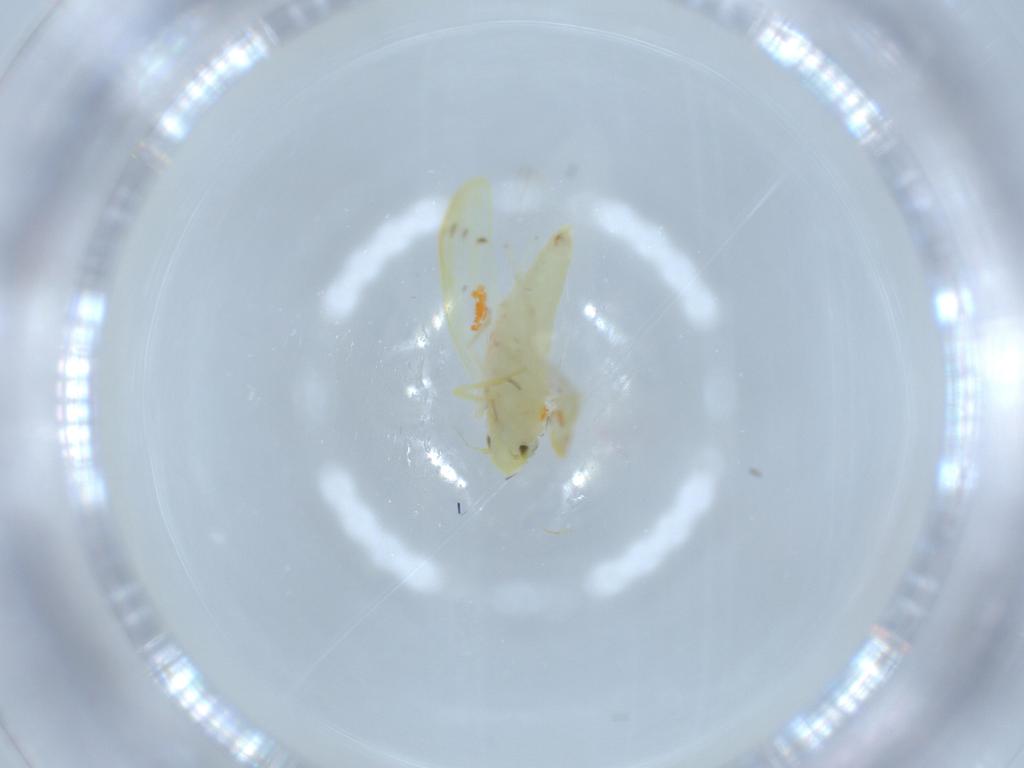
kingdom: Animalia
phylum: Arthropoda
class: Insecta
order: Hemiptera
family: Cicadellidae
